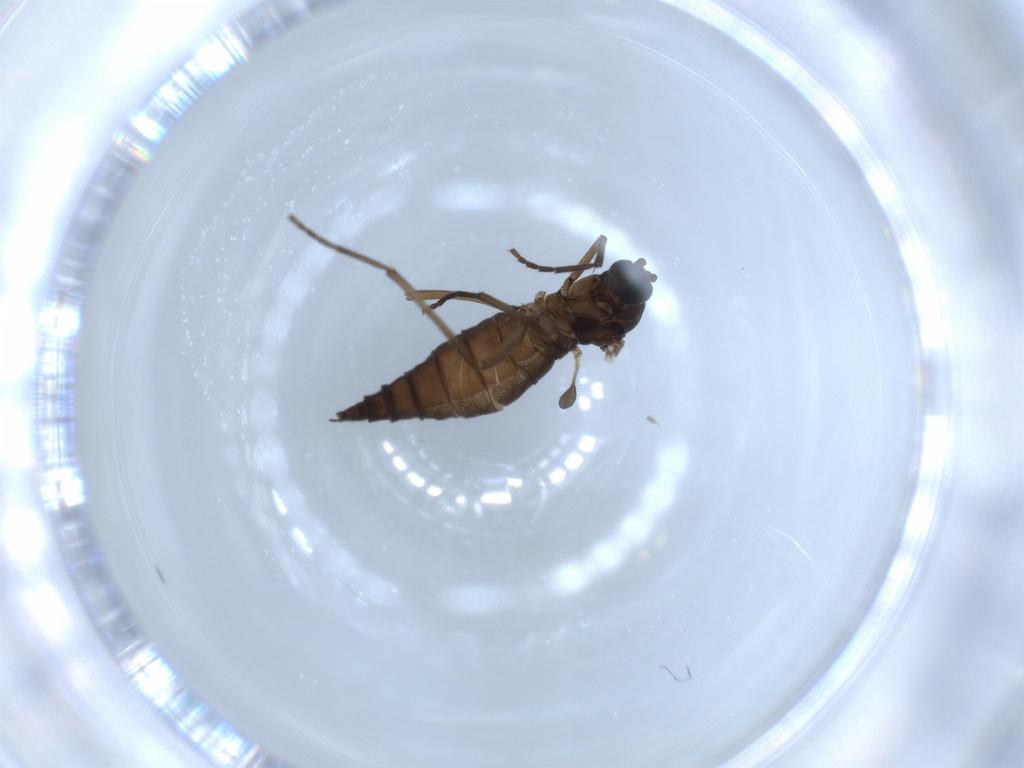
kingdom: Animalia
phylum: Arthropoda
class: Insecta
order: Diptera
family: Sciaridae
